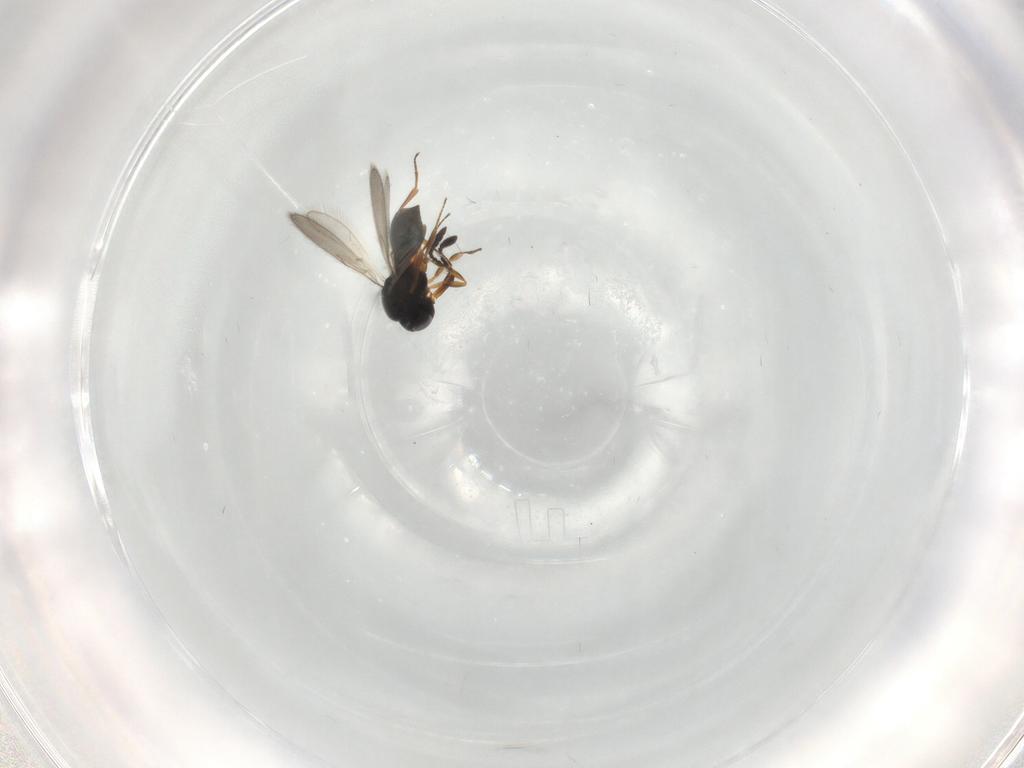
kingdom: Animalia
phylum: Arthropoda
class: Insecta
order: Hymenoptera
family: Scelionidae
